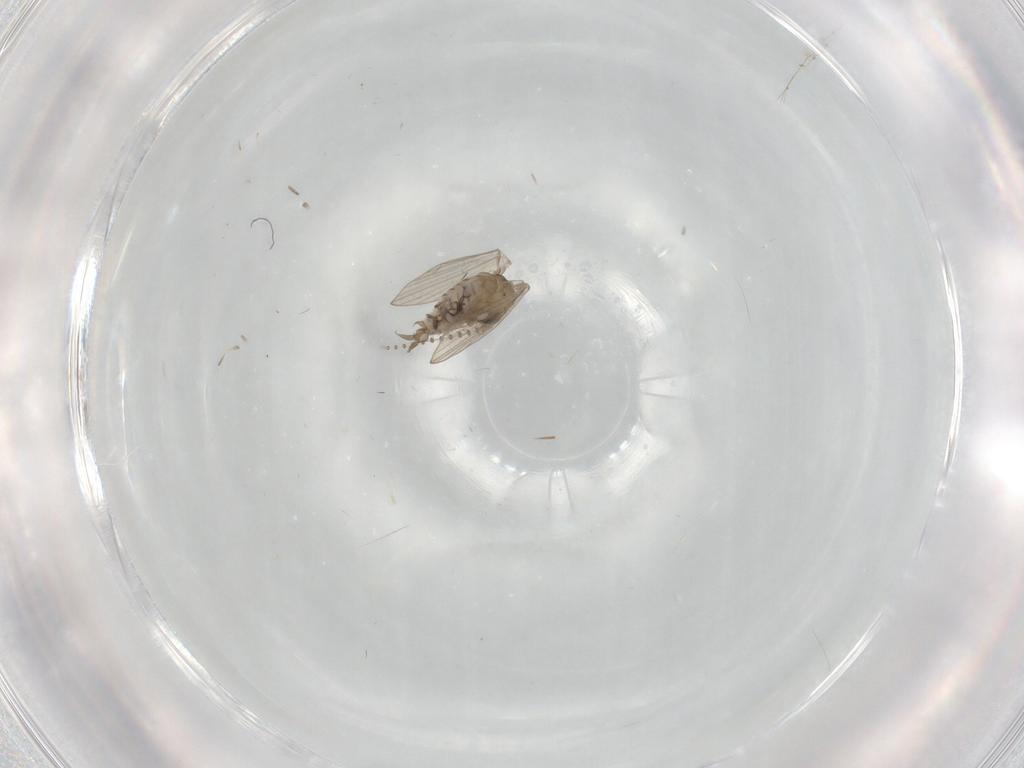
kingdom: Animalia
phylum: Arthropoda
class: Insecta
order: Diptera
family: Psychodidae
